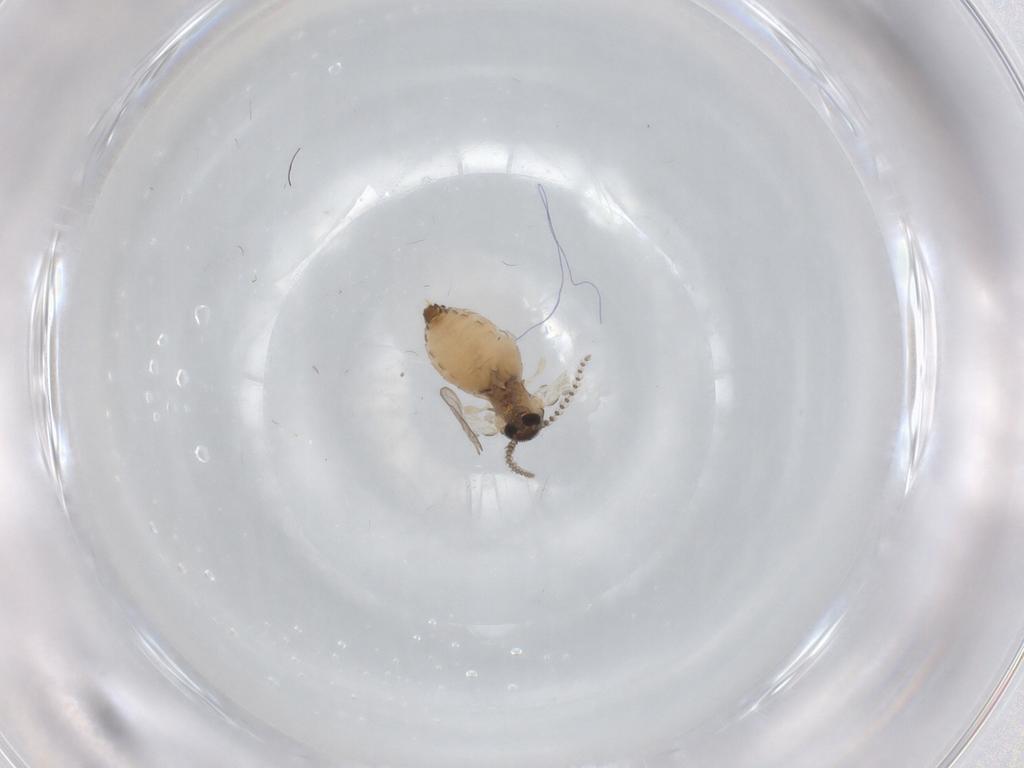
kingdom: Animalia
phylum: Arthropoda
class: Insecta
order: Diptera
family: Psychodidae
